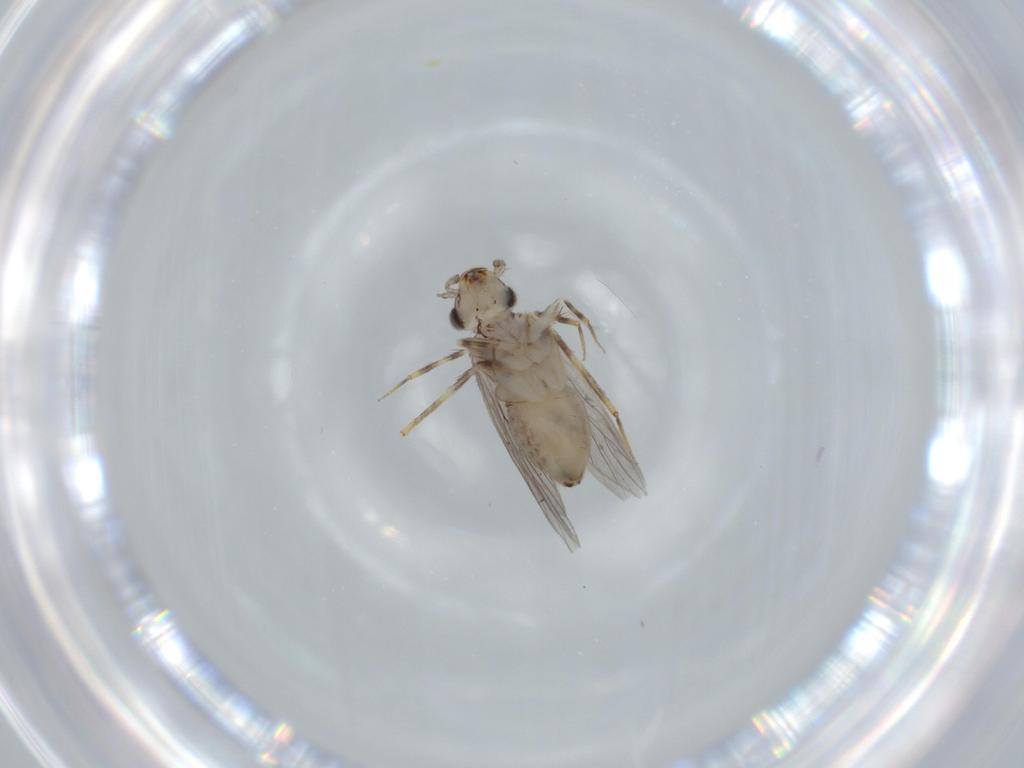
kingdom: Animalia
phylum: Arthropoda
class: Insecta
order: Psocodea
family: Lepidopsocidae
